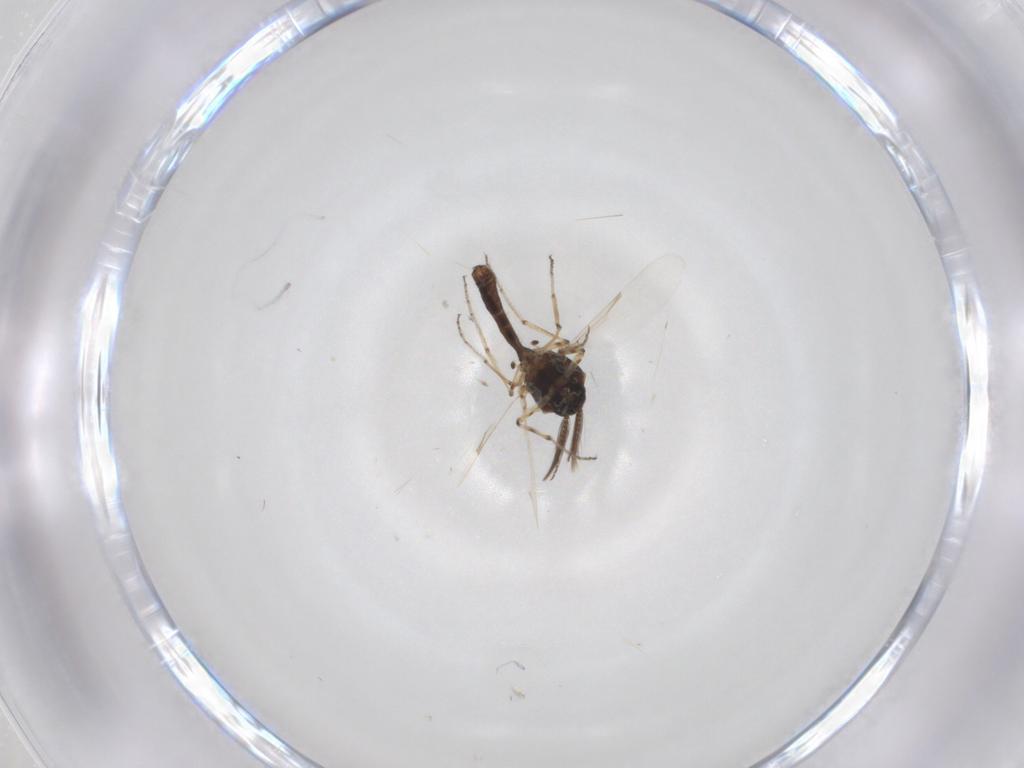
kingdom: Animalia
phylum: Arthropoda
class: Insecta
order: Diptera
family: Ceratopogonidae
